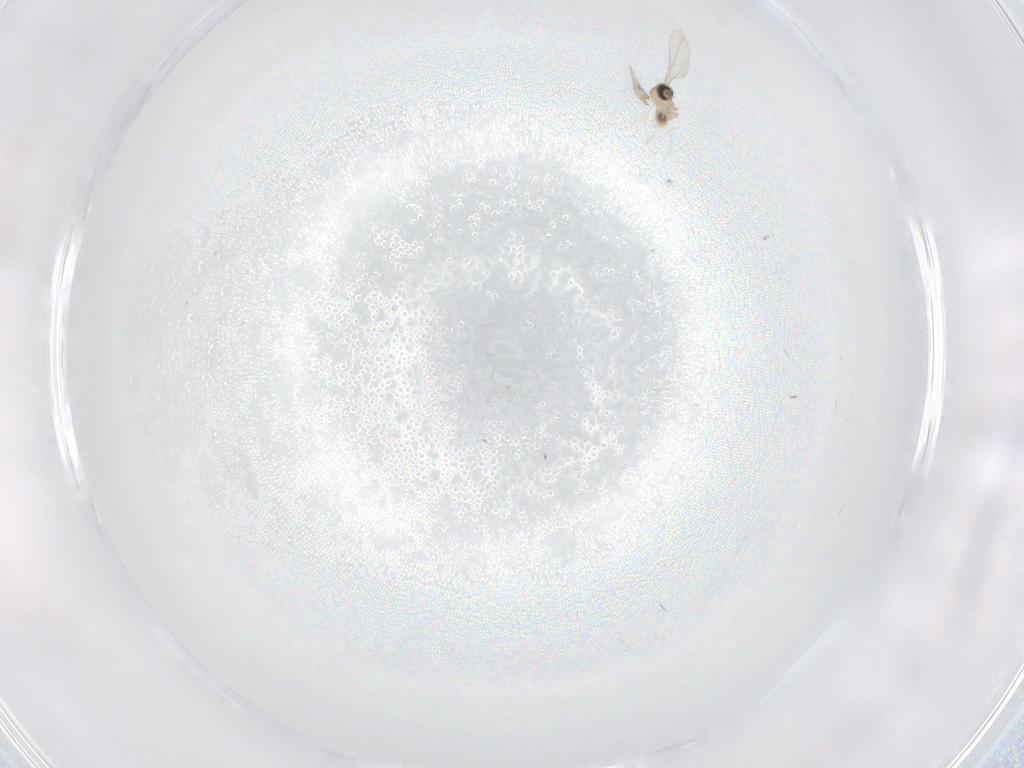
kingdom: Animalia
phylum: Arthropoda
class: Insecta
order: Diptera
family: Cecidomyiidae
